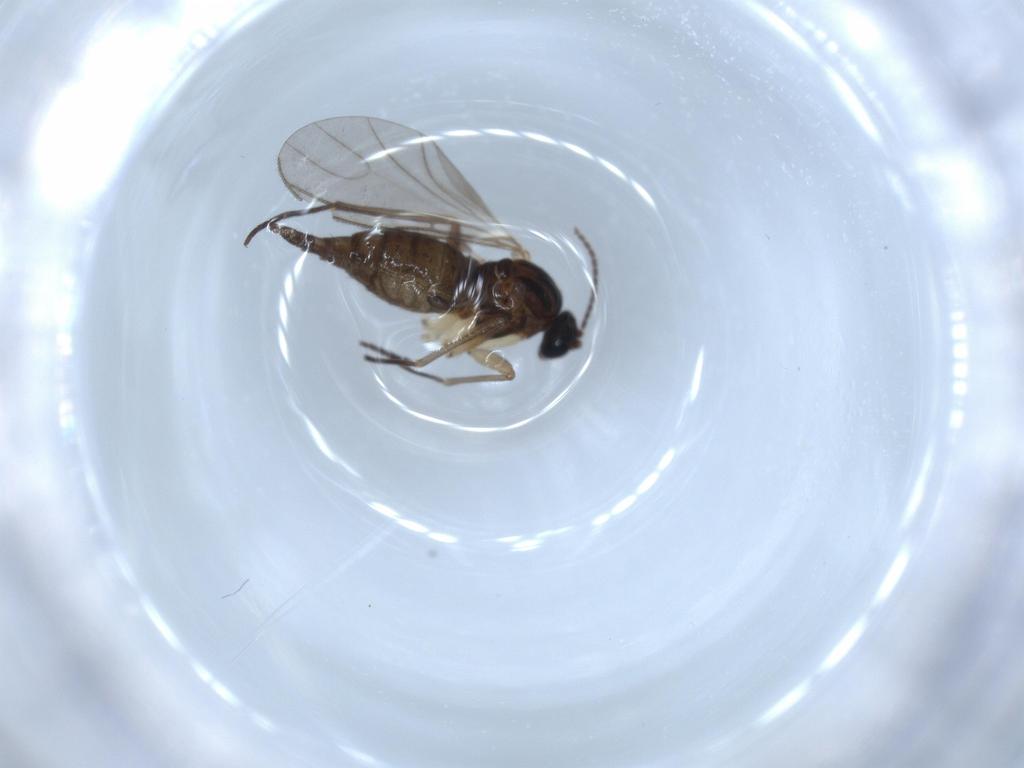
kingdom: Animalia
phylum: Arthropoda
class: Insecta
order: Diptera
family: Cecidomyiidae
